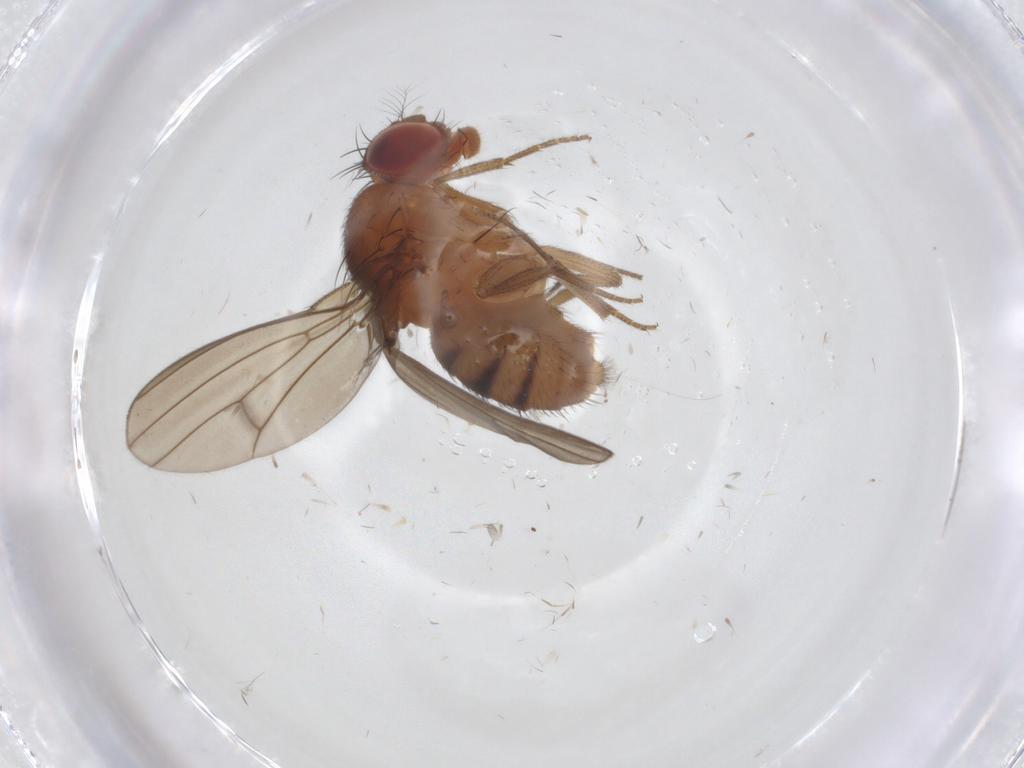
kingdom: Animalia
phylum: Arthropoda
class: Insecta
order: Diptera
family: Drosophilidae
